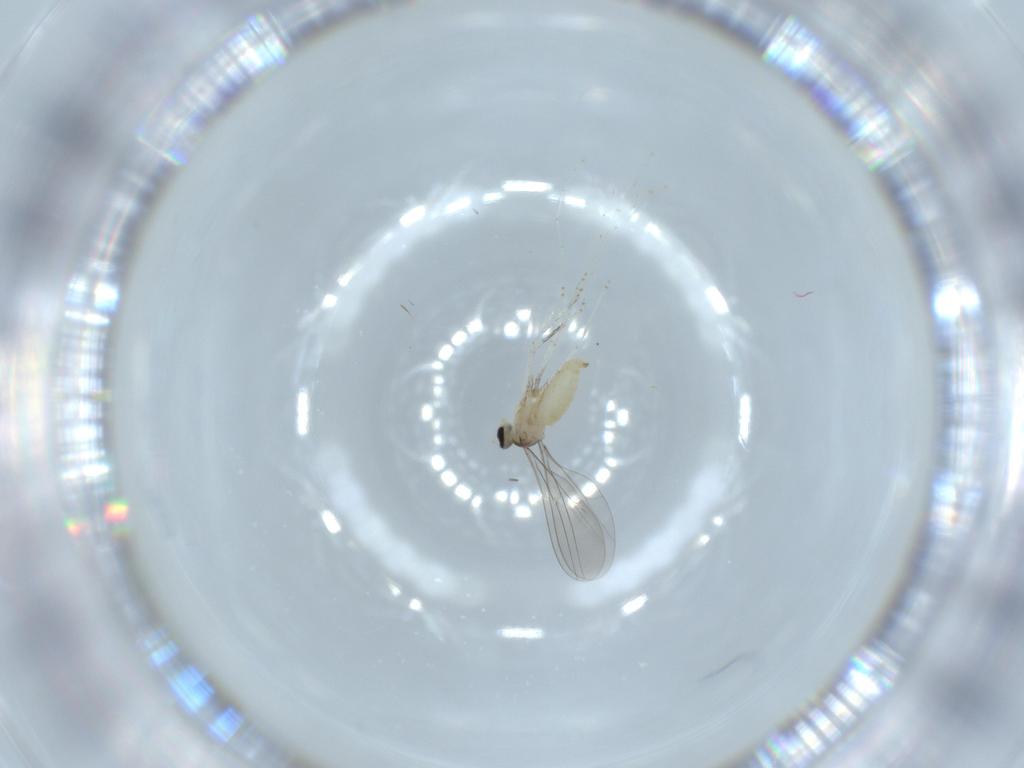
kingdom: Animalia
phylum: Arthropoda
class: Insecta
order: Diptera
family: Cecidomyiidae
